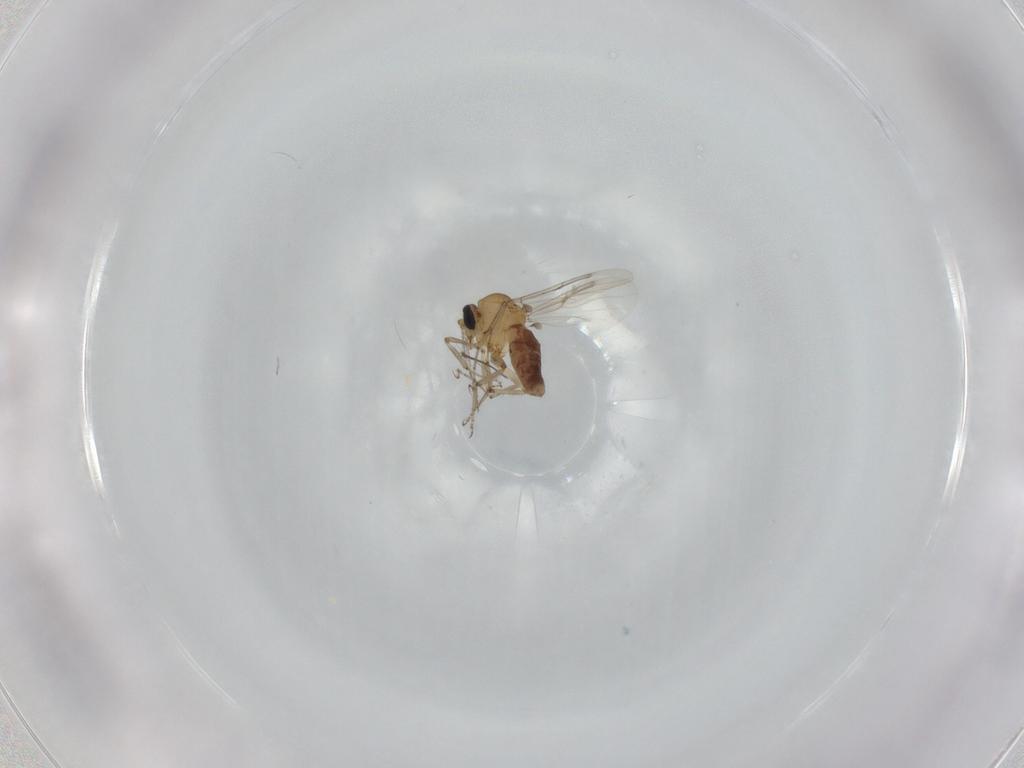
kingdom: Animalia
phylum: Arthropoda
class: Insecta
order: Diptera
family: Ceratopogonidae
